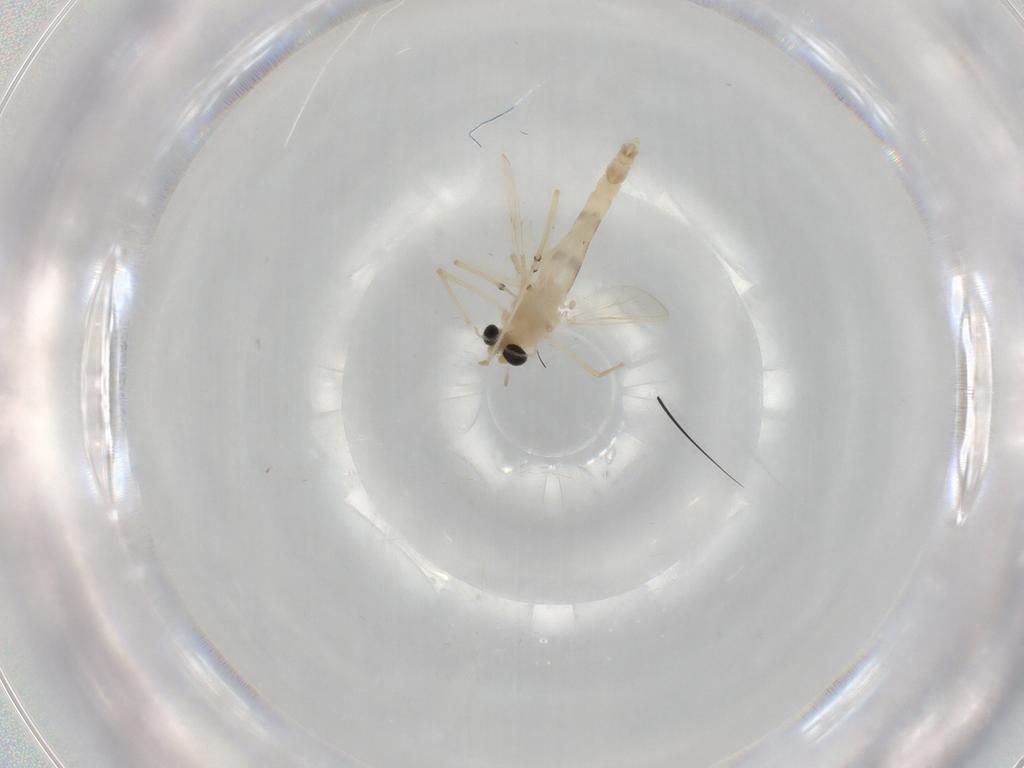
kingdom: Animalia
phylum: Arthropoda
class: Insecta
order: Diptera
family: Chironomidae
